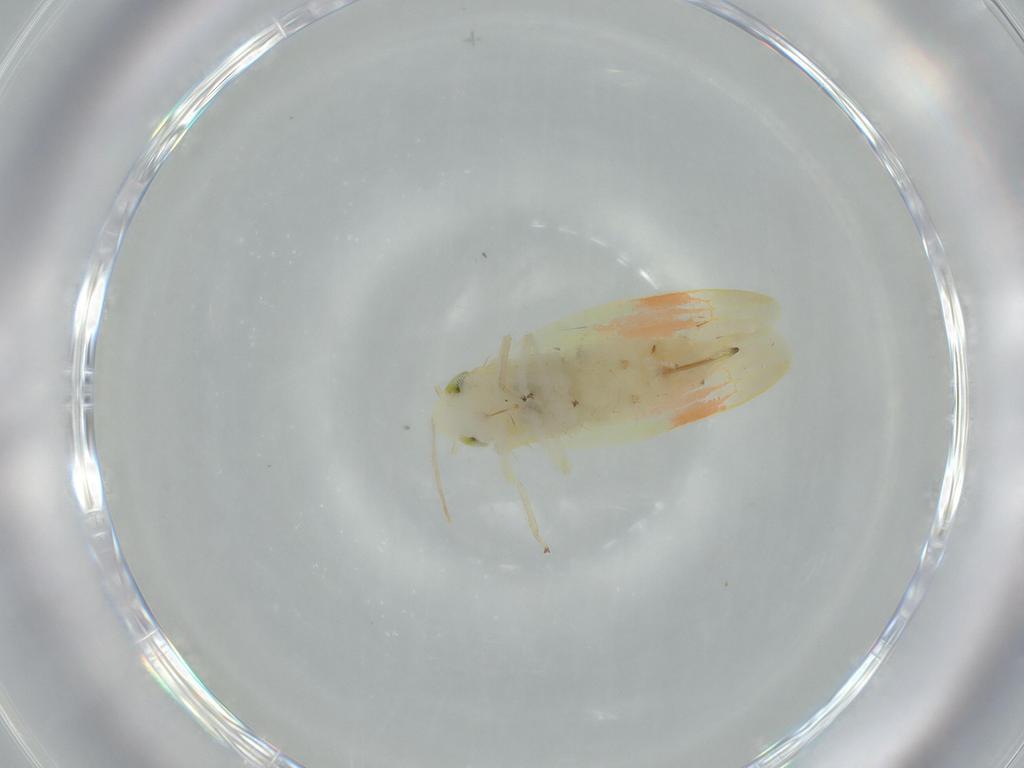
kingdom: Animalia
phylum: Arthropoda
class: Insecta
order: Hemiptera
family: Cicadellidae
